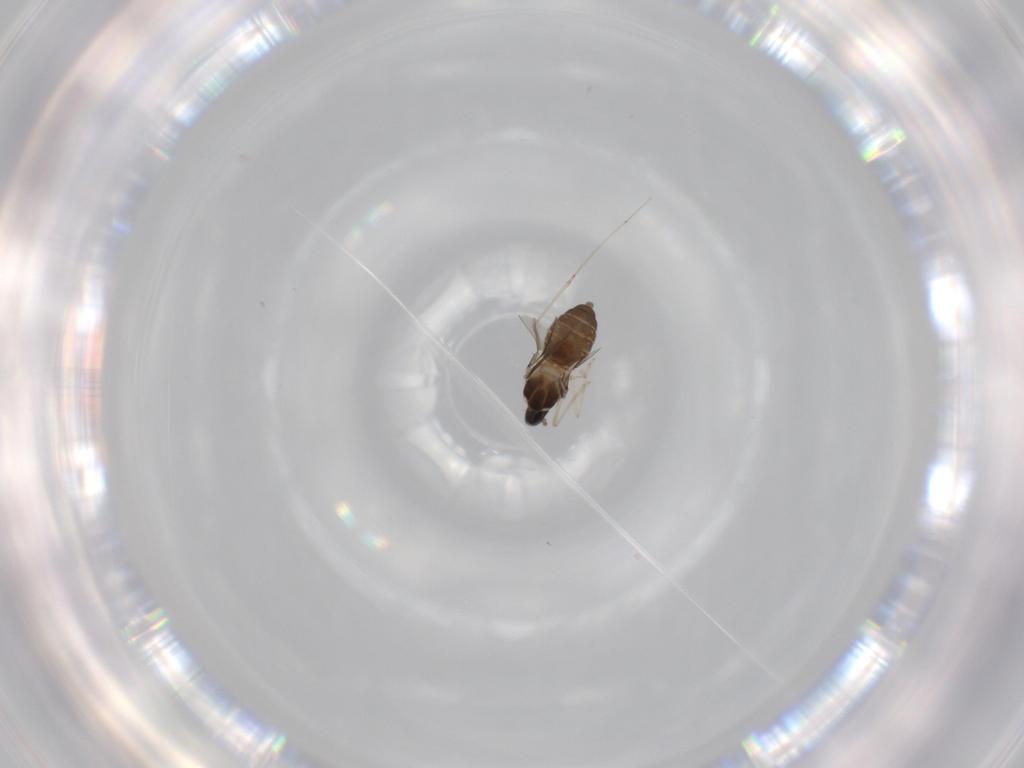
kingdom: Animalia
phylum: Arthropoda
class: Insecta
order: Diptera
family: Cecidomyiidae
